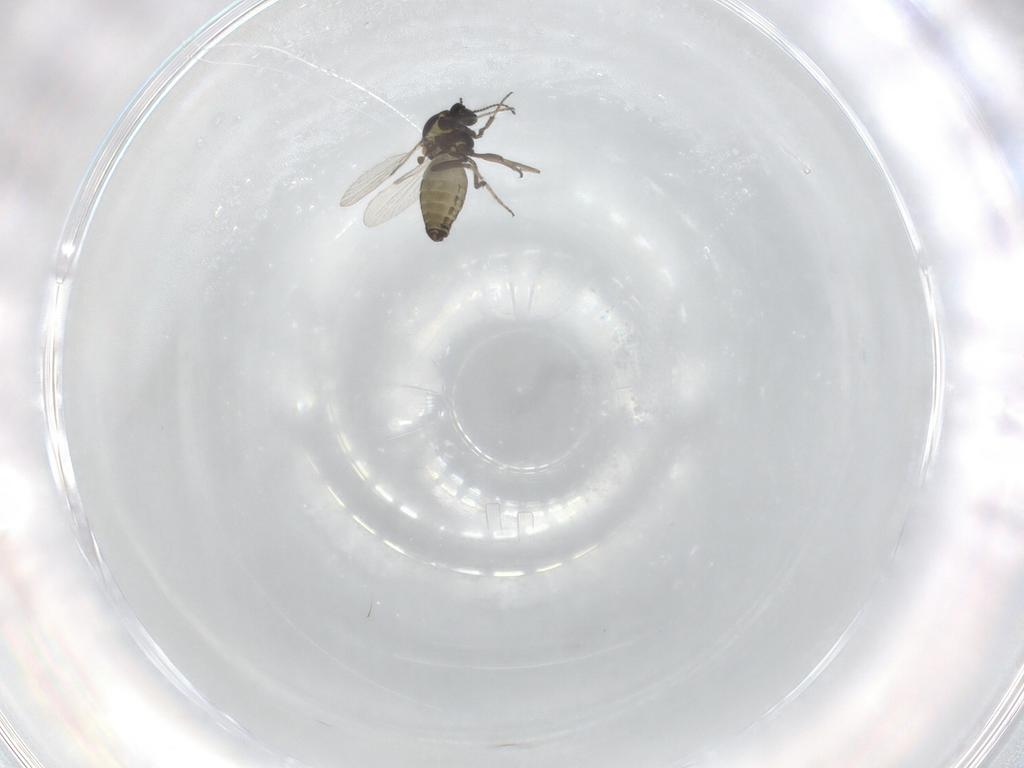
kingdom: Animalia
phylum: Arthropoda
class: Insecta
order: Diptera
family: Ceratopogonidae
